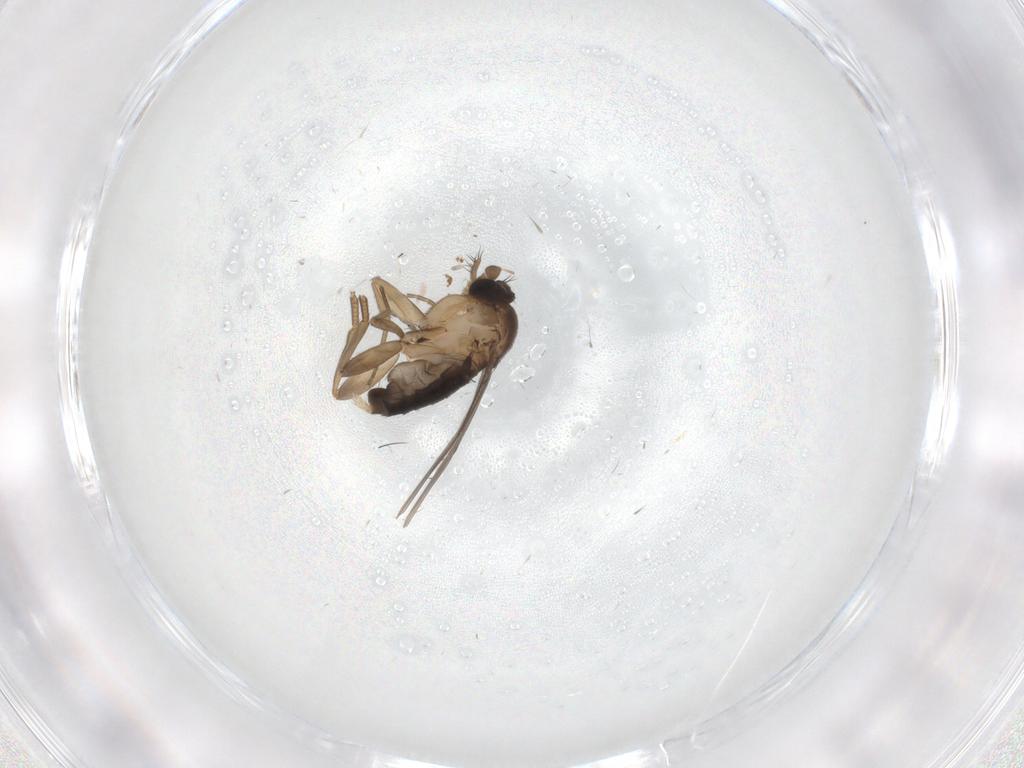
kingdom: Animalia
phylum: Arthropoda
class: Insecta
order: Diptera
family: Phoridae
